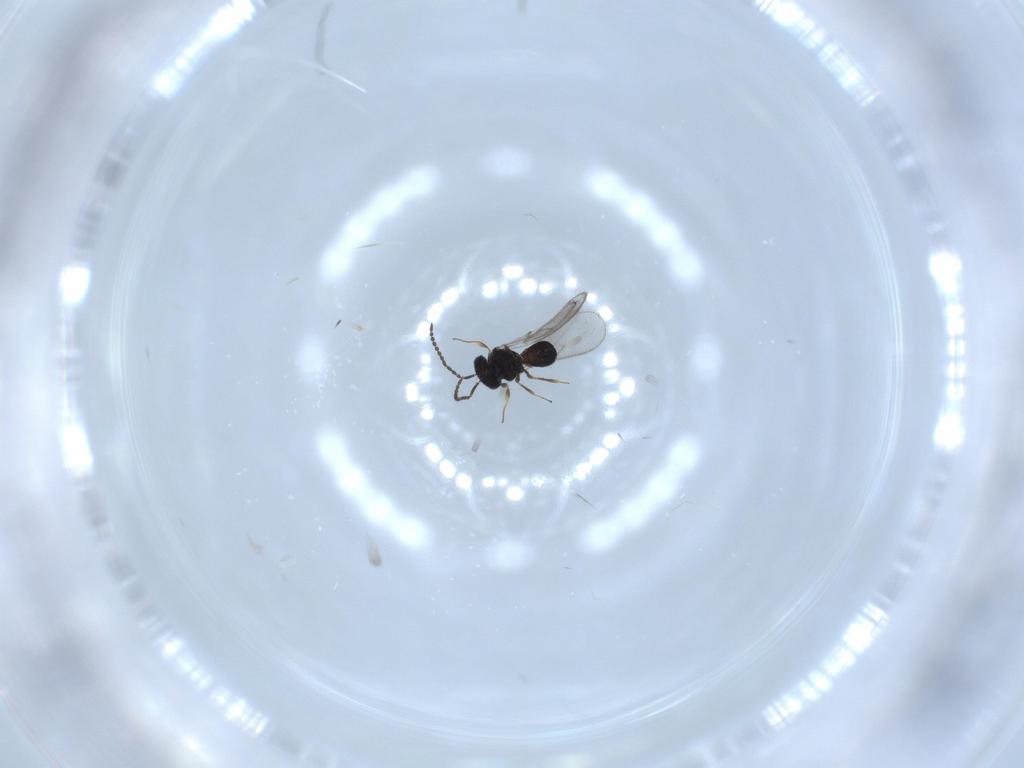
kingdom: Animalia
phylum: Arthropoda
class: Insecta
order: Hymenoptera
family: Scelionidae
